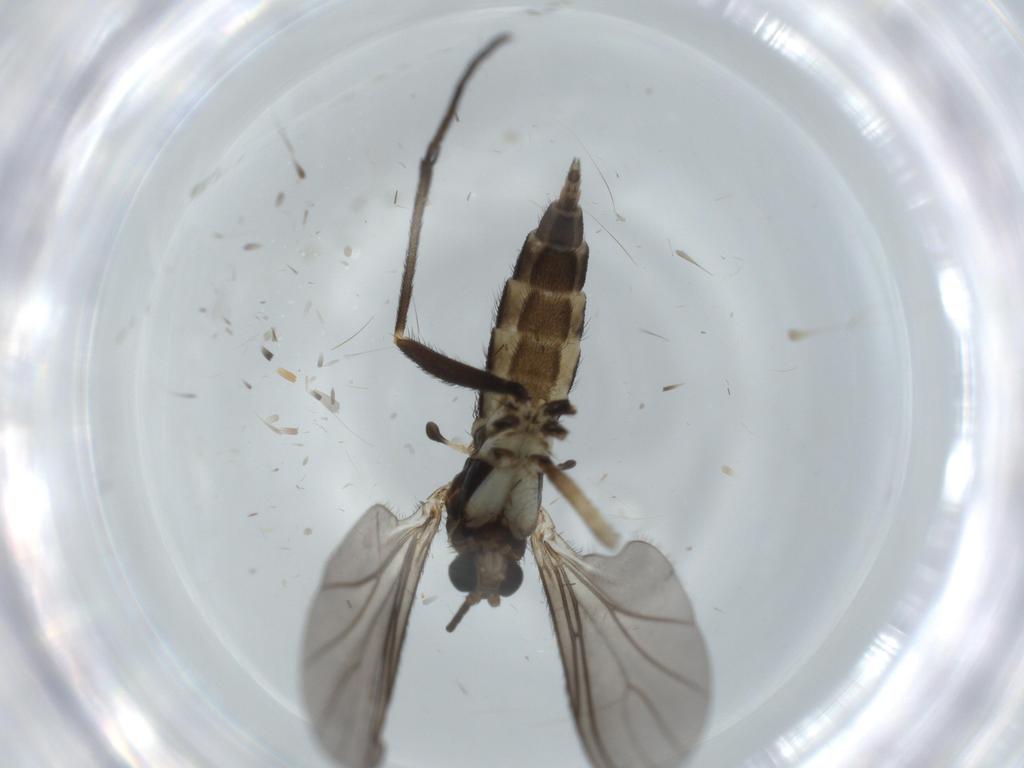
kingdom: Animalia
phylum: Arthropoda
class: Insecta
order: Diptera
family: Sciaridae
